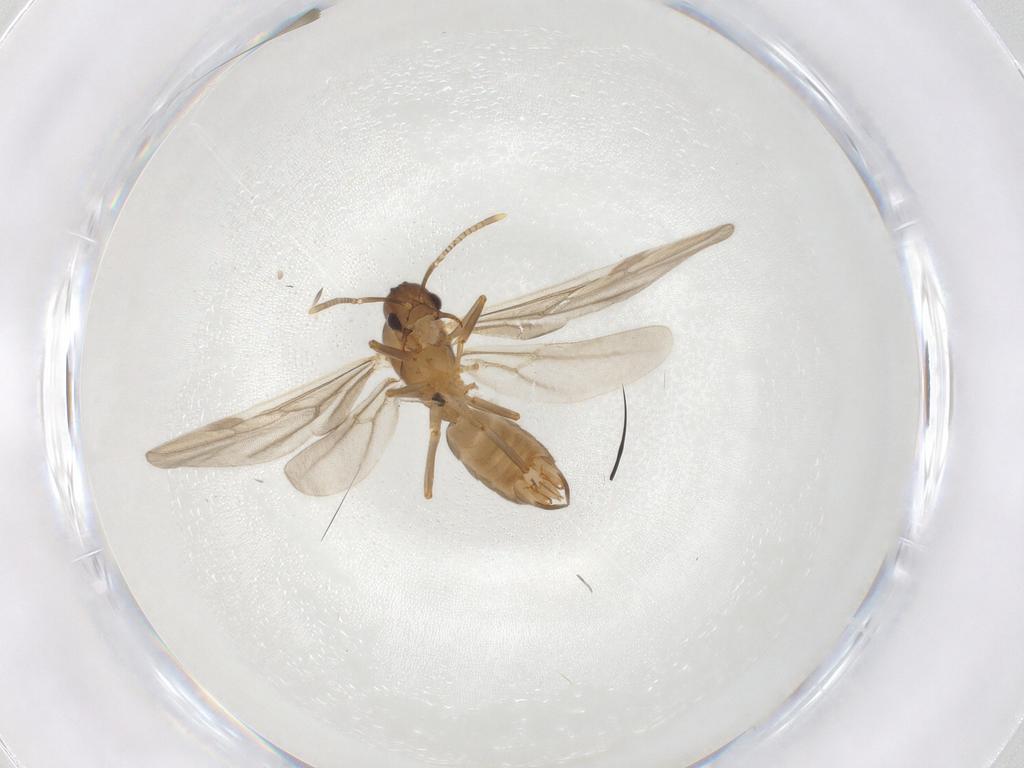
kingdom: Animalia
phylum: Arthropoda
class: Insecta
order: Hymenoptera
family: Formicidae
